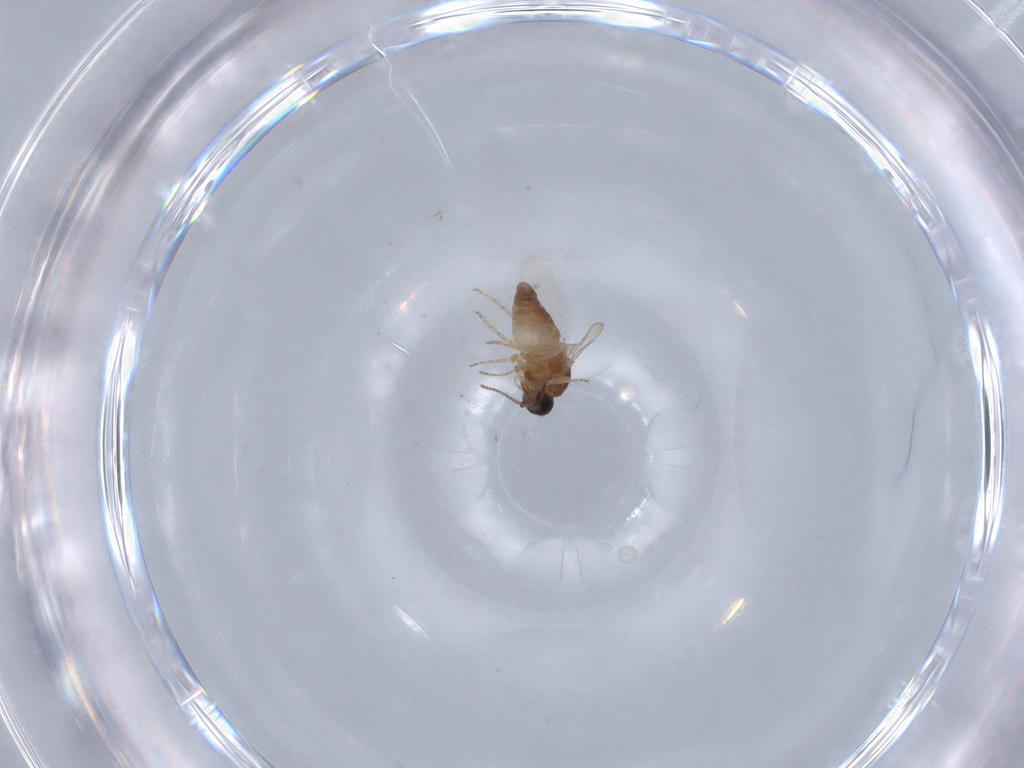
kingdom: Animalia
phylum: Arthropoda
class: Insecta
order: Diptera
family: Ceratopogonidae
